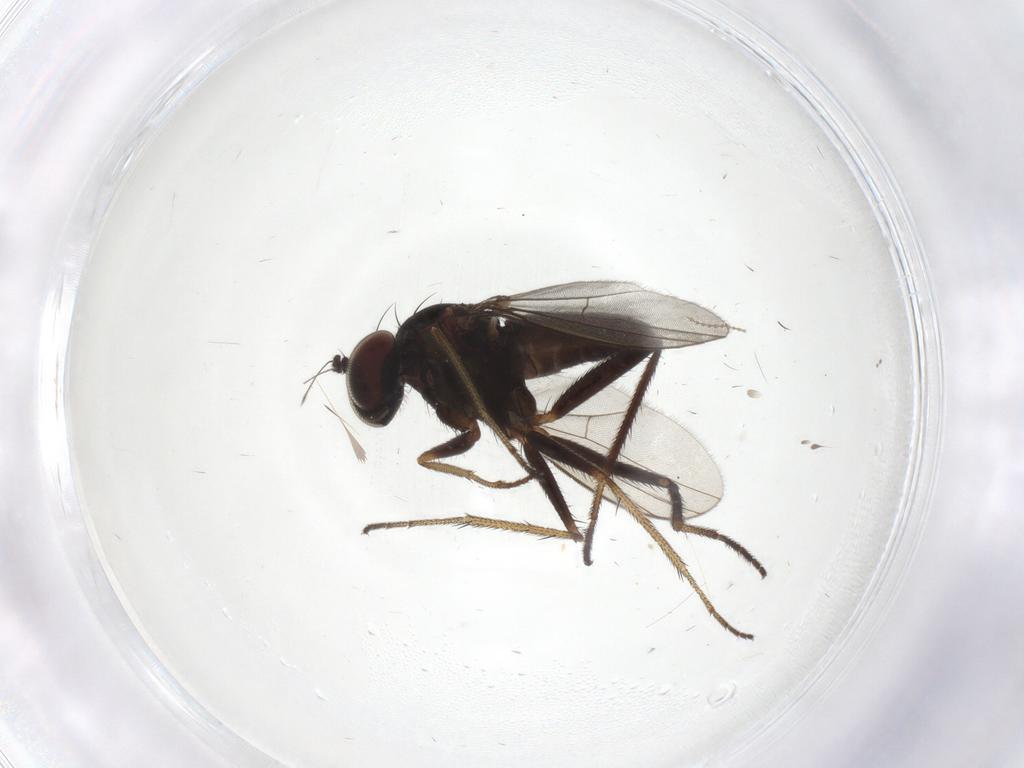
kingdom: Animalia
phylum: Arthropoda
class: Insecta
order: Diptera
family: Cecidomyiidae
